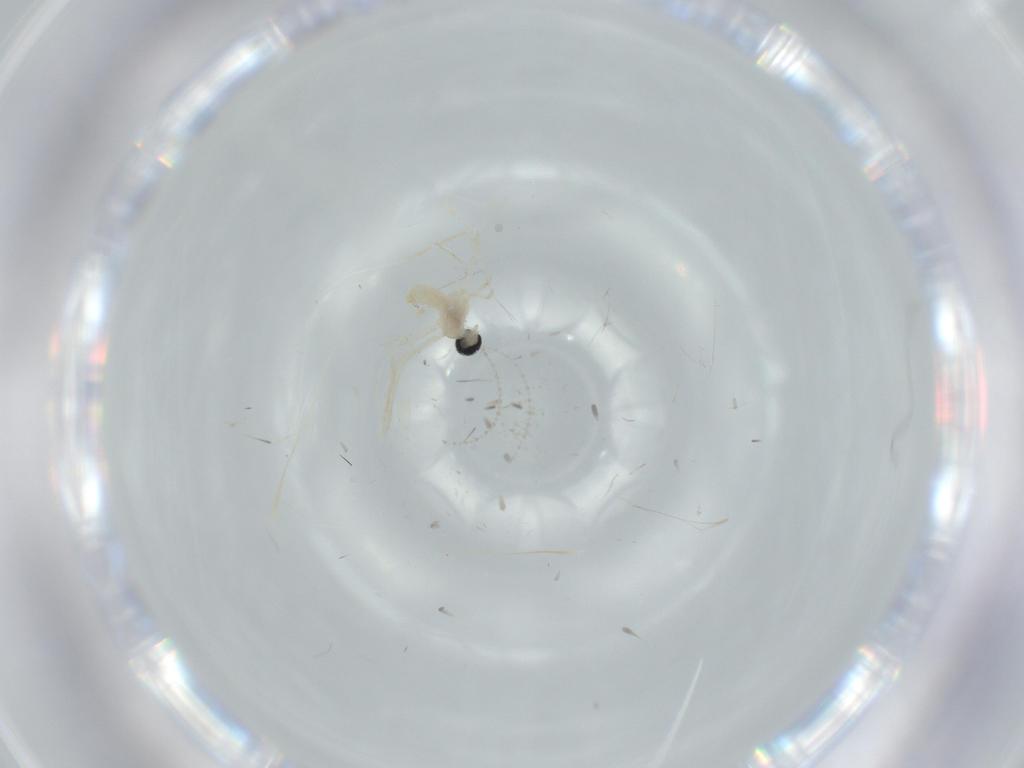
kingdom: Animalia
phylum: Arthropoda
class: Insecta
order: Diptera
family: Cecidomyiidae
